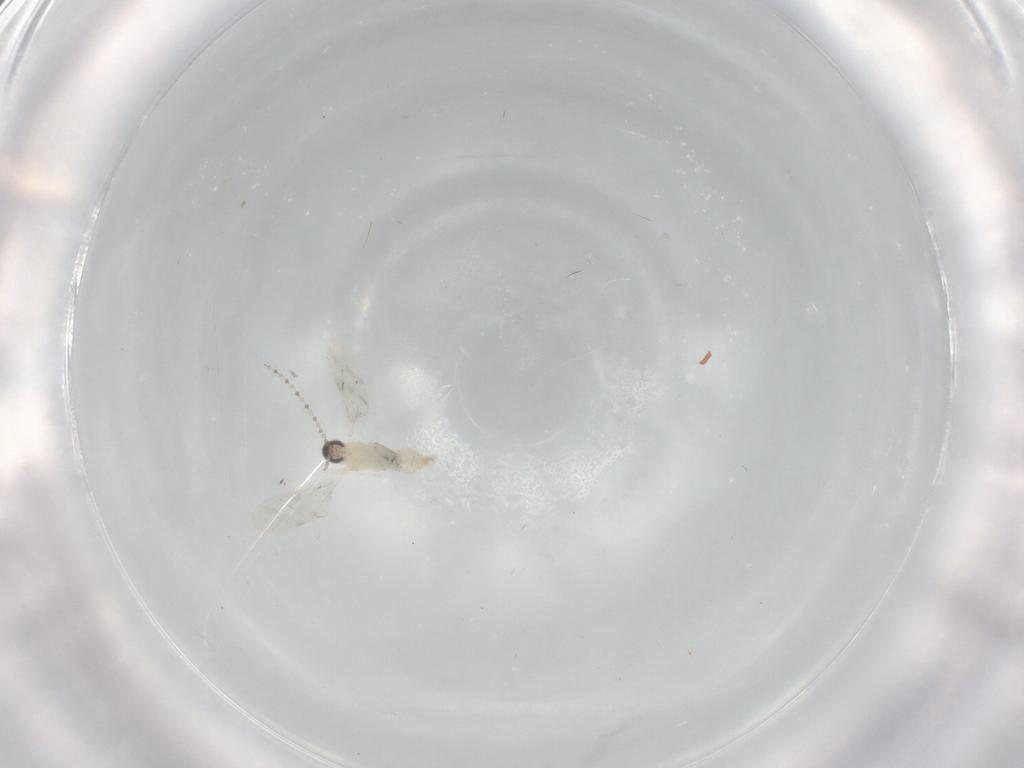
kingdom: Animalia
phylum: Arthropoda
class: Insecta
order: Diptera
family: Cecidomyiidae
